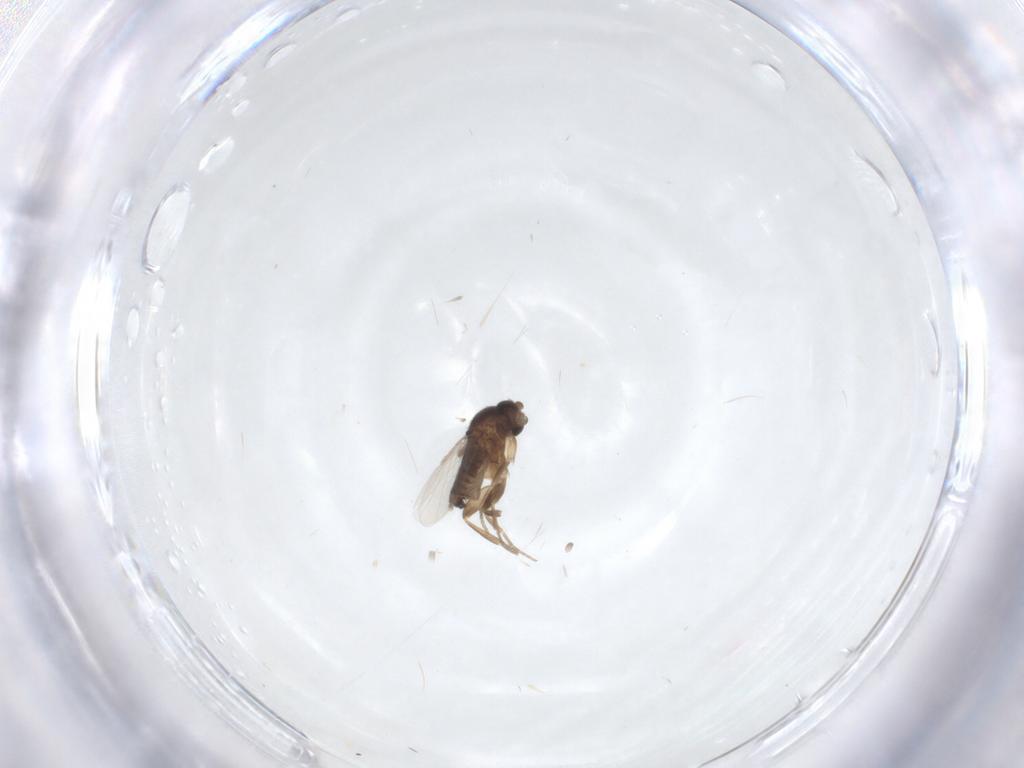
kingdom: Animalia
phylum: Arthropoda
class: Insecta
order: Diptera
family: Phoridae
